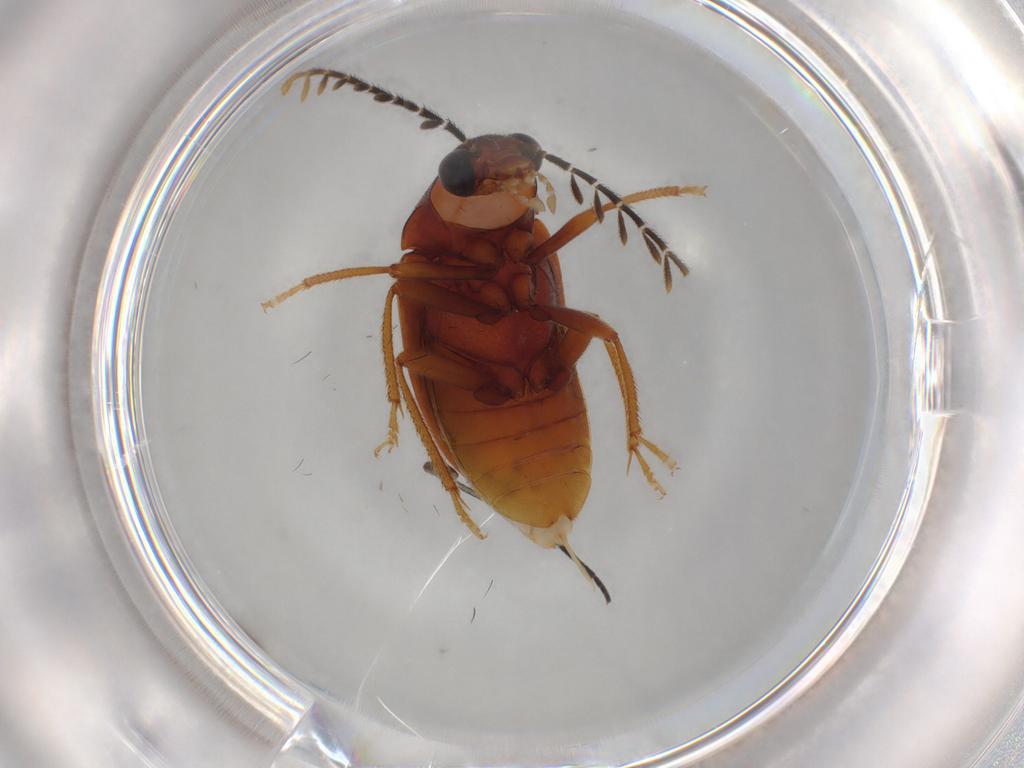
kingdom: Animalia
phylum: Arthropoda
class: Insecta
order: Coleoptera
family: Ptilodactylidae
